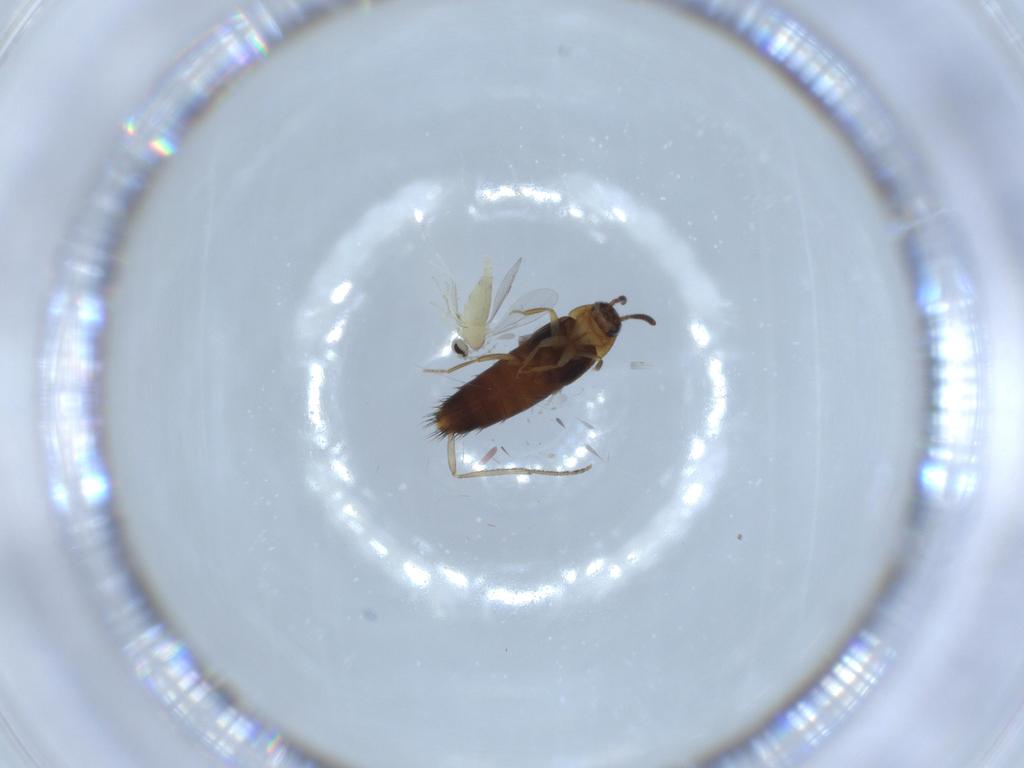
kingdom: Animalia
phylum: Arthropoda
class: Insecta
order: Coleoptera
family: Staphylinidae
